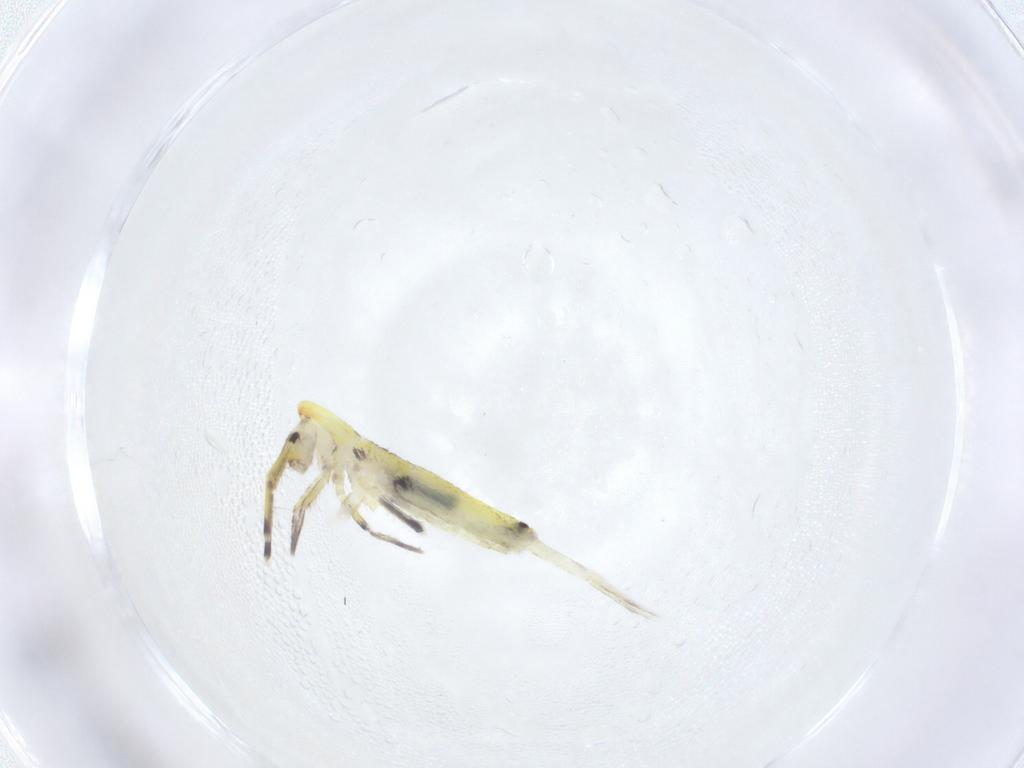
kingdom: Animalia
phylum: Arthropoda
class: Collembola
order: Entomobryomorpha
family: Entomobryidae
